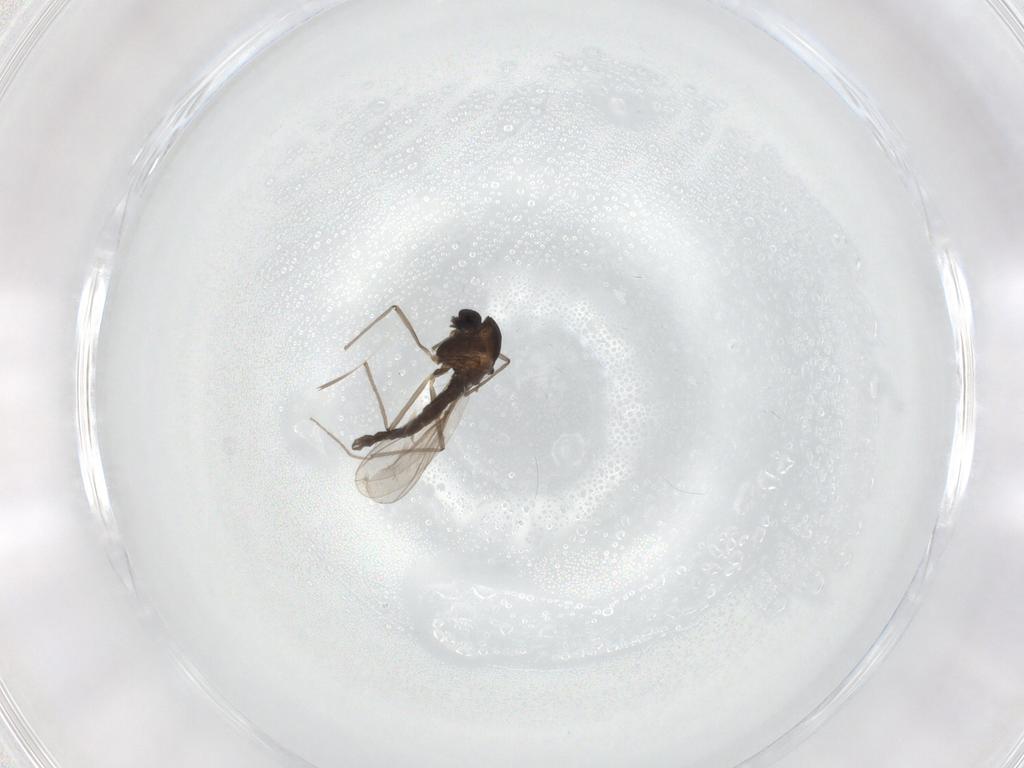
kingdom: Animalia
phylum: Arthropoda
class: Insecta
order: Diptera
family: Chironomidae
